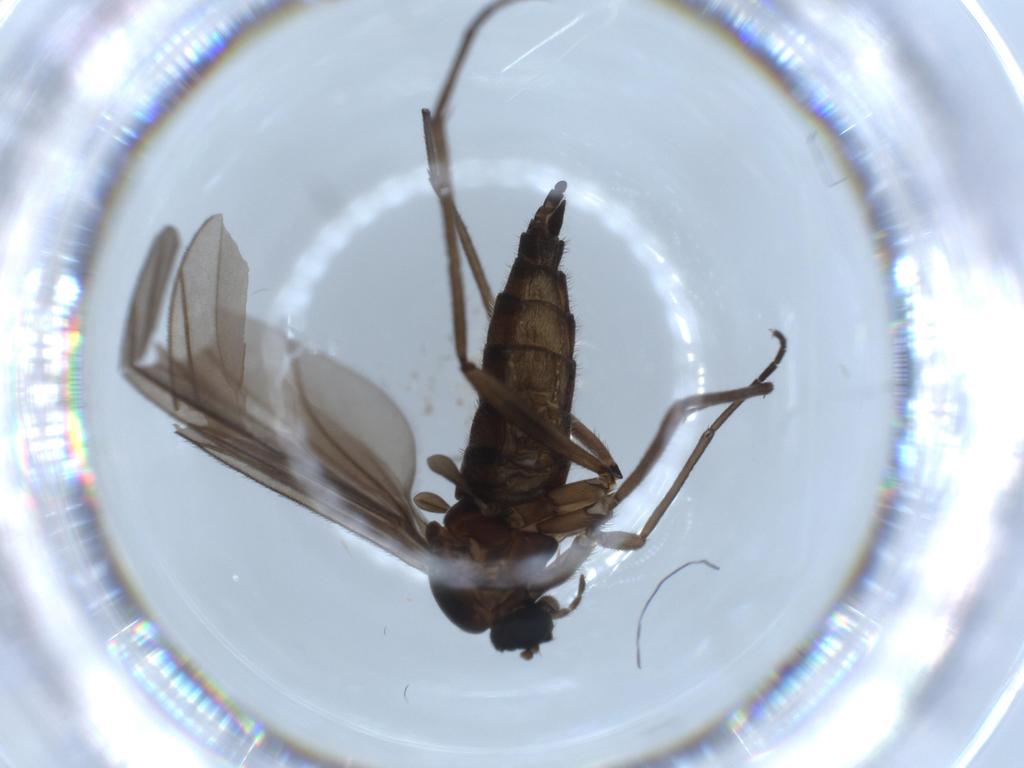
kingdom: Animalia
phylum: Arthropoda
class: Insecta
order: Diptera
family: Sciaridae
